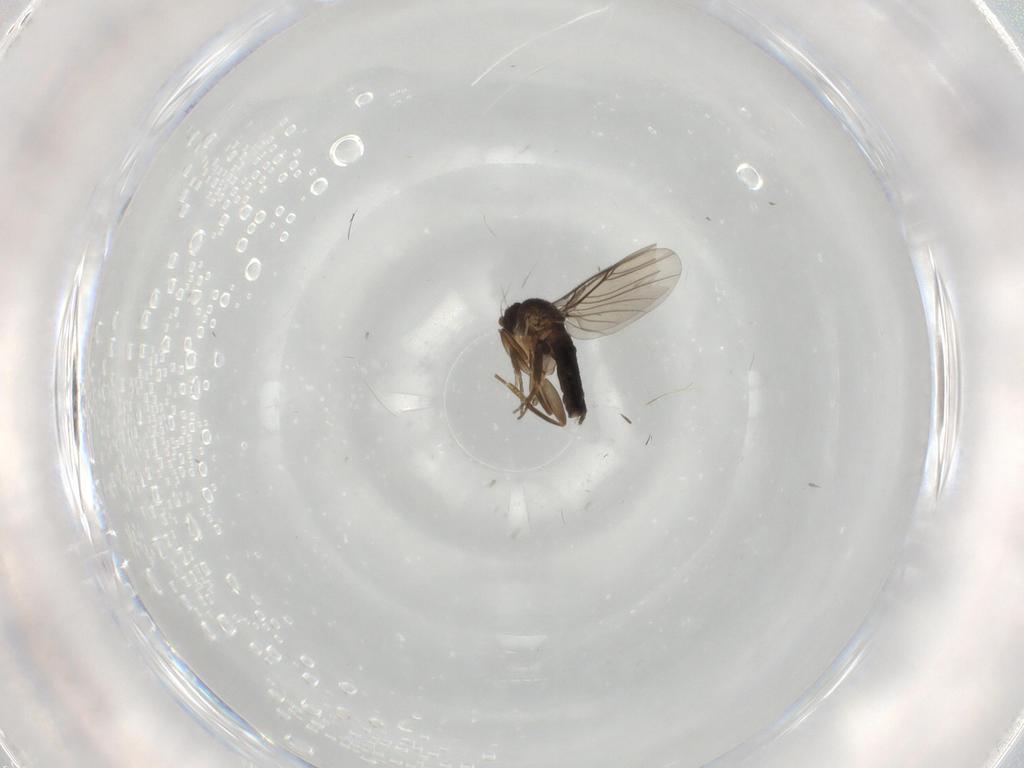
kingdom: Animalia
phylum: Arthropoda
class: Insecta
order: Diptera
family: Phoridae
